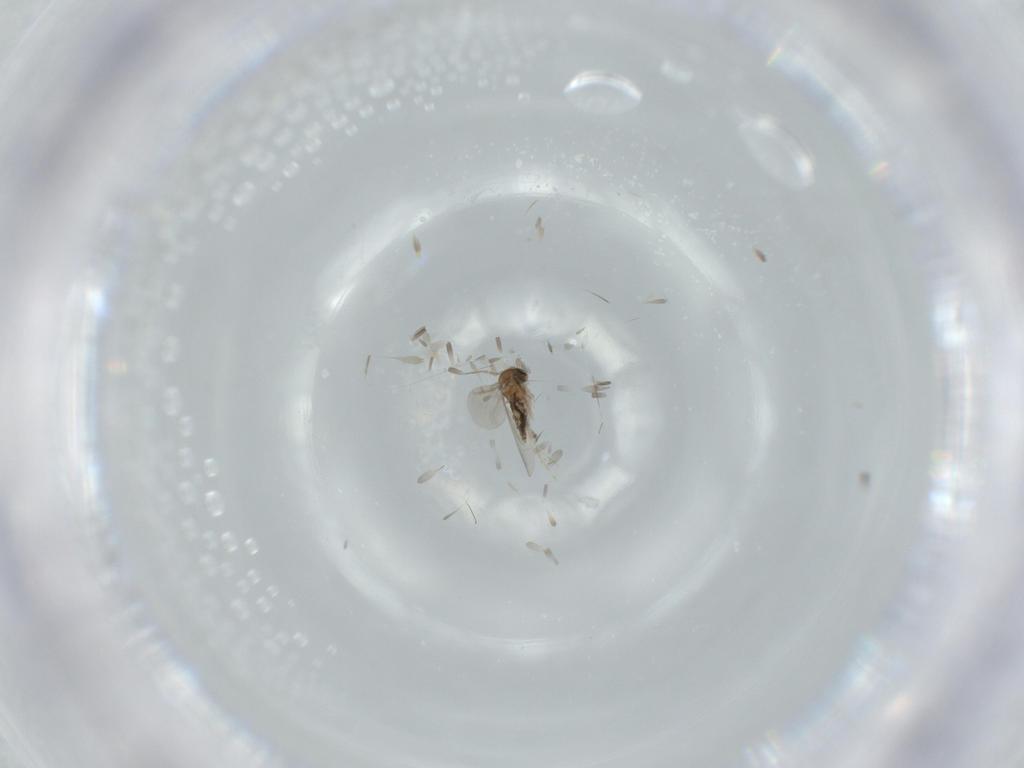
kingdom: Animalia
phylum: Arthropoda
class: Insecta
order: Diptera
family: Cecidomyiidae
